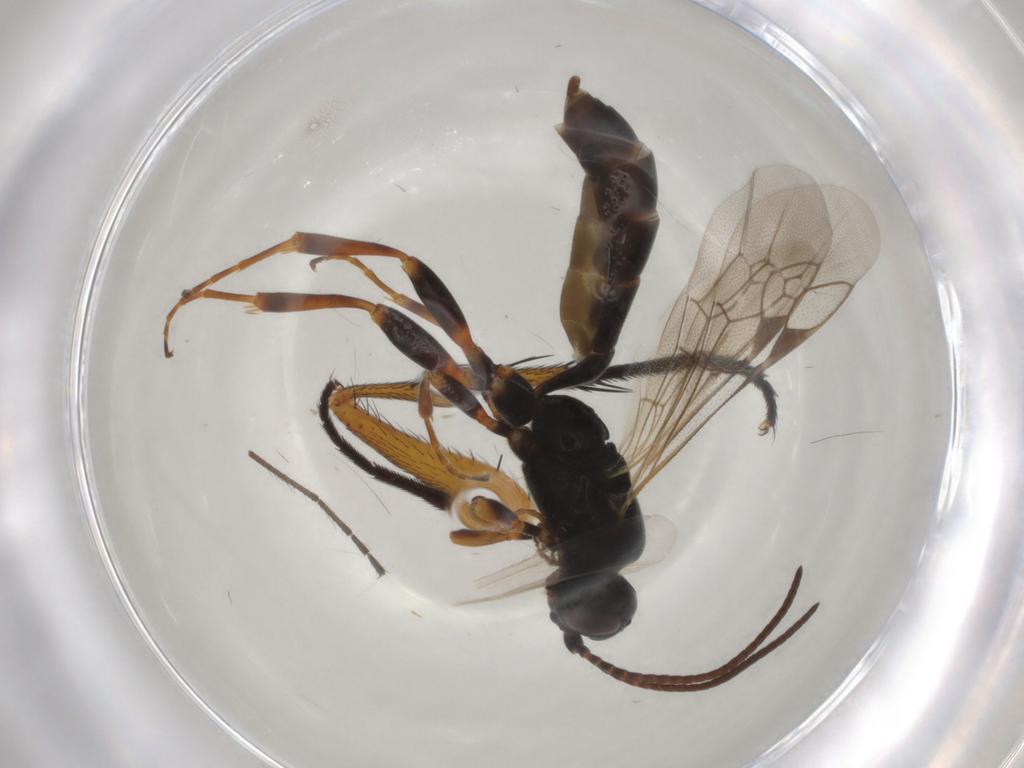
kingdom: Animalia
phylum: Arthropoda
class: Insecta
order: Hymenoptera
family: Ichneumonidae
